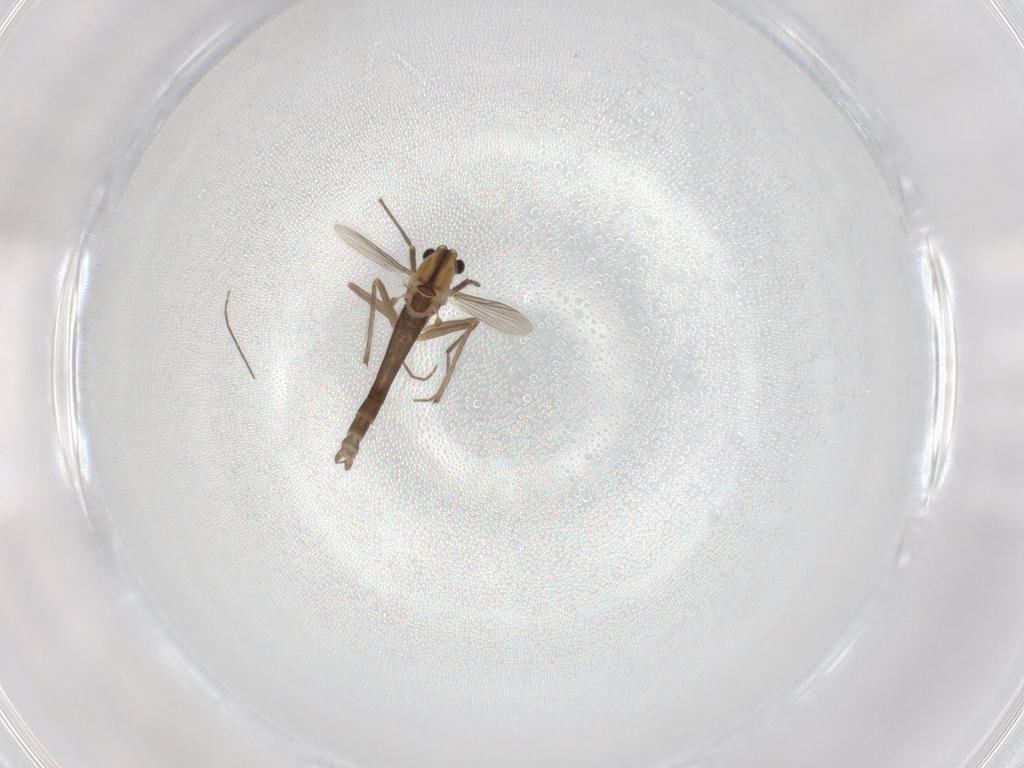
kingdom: Animalia
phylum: Arthropoda
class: Insecta
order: Diptera
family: Chironomidae
